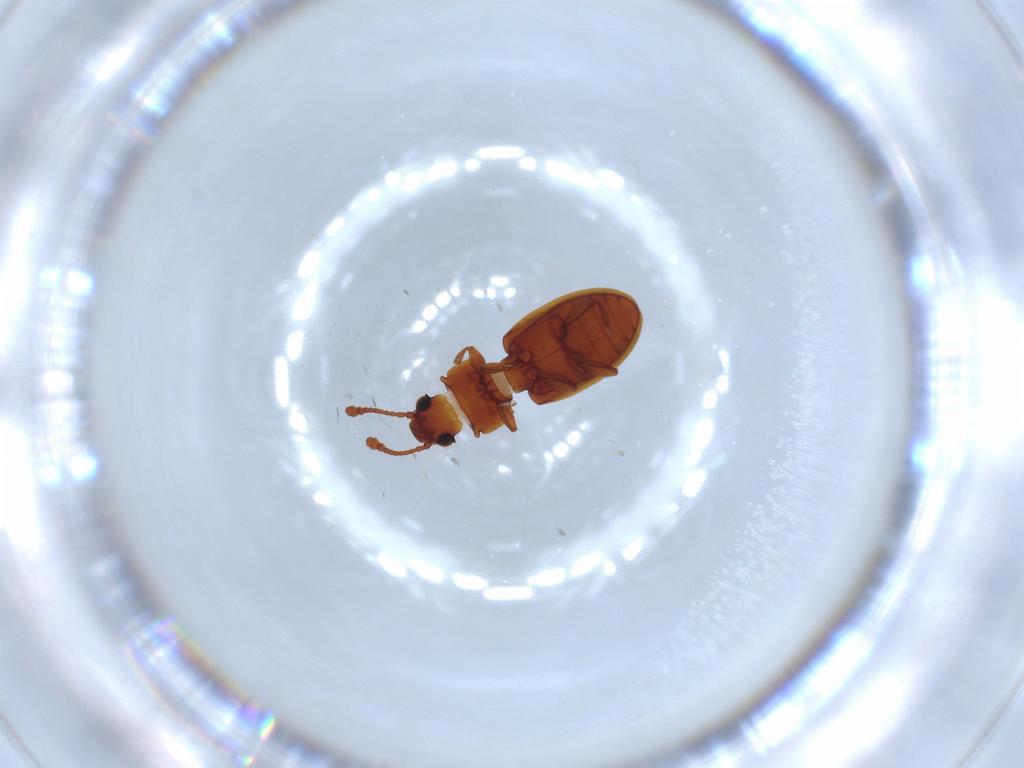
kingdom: Animalia
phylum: Arthropoda
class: Insecta
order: Coleoptera
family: Silvanidae
